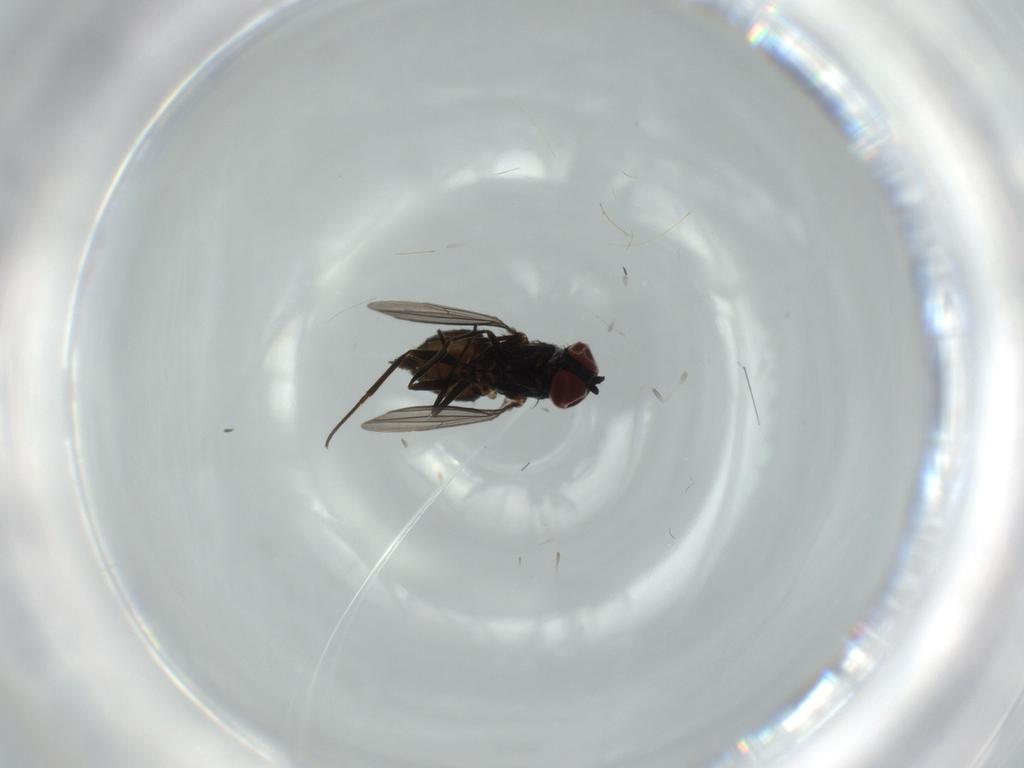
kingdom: Animalia
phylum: Arthropoda
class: Insecta
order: Diptera
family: Dolichopodidae
